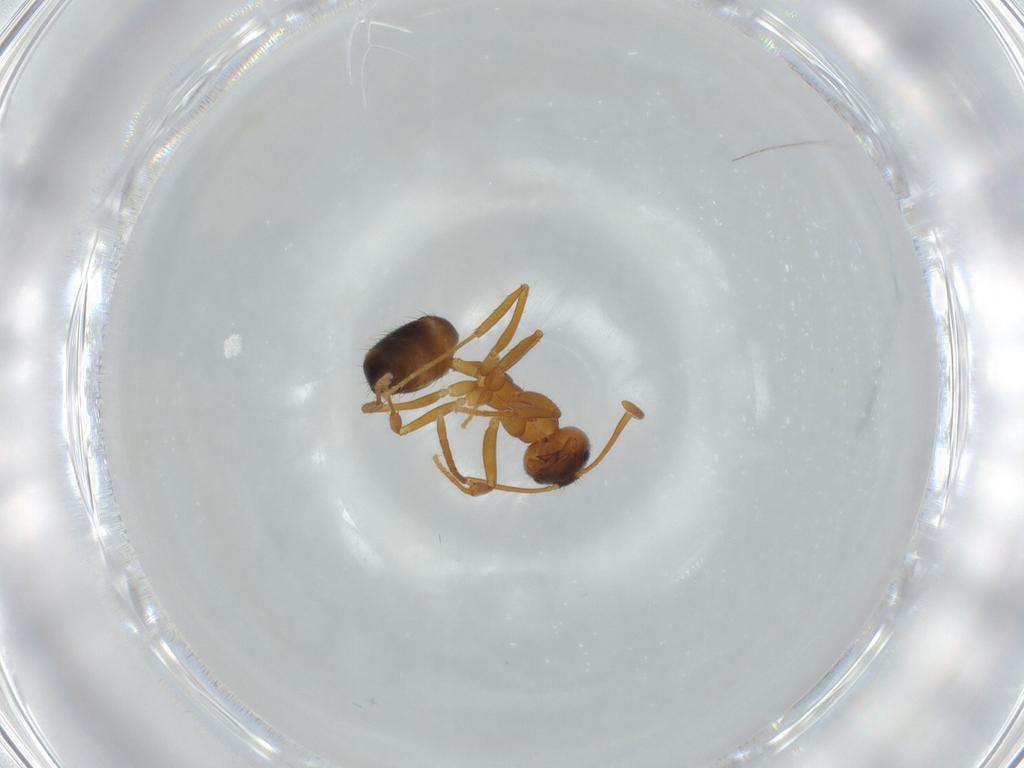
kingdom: Animalia
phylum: Arthropoda
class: Insecta
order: Hymenoptera
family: Formicidae
